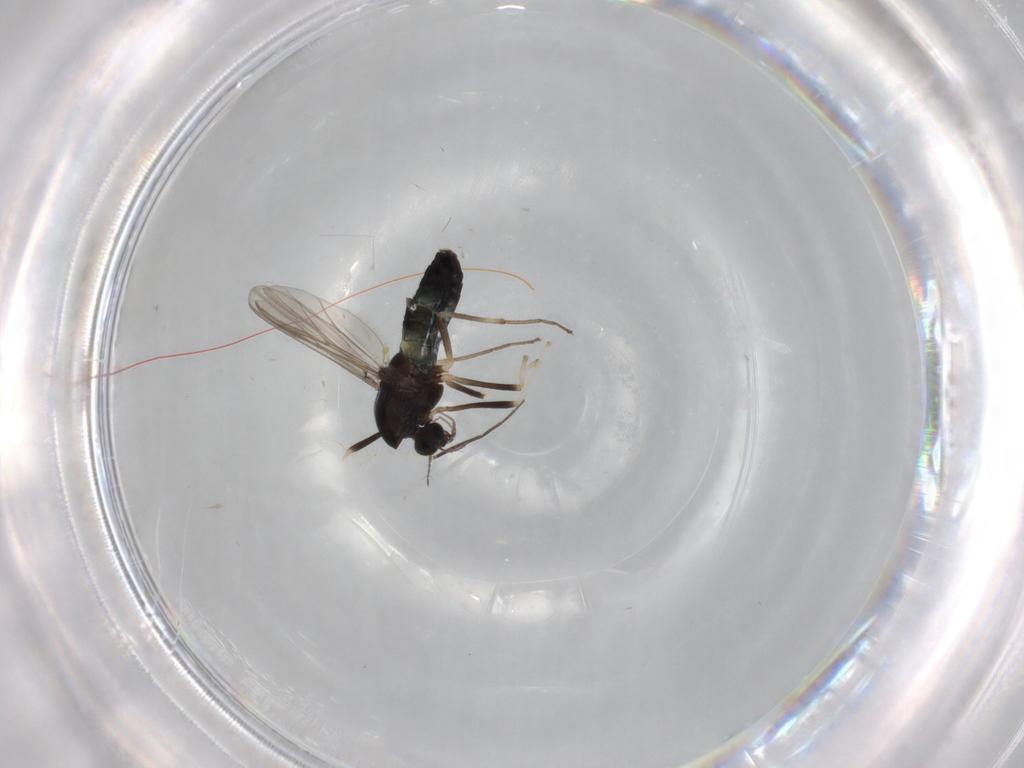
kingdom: Animalia
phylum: Arthropoda
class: Insecta
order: Diptera
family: Chironomidae
